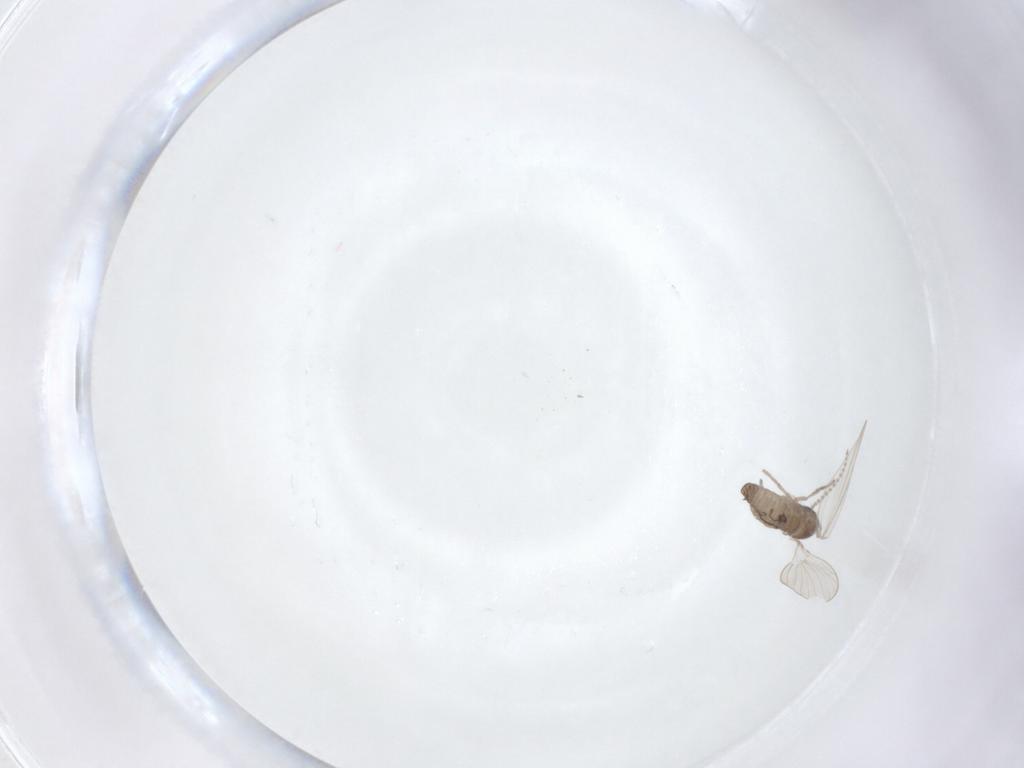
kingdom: Animalia
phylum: Arthropoda
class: Insecta
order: Diptera
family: Psychodidae
